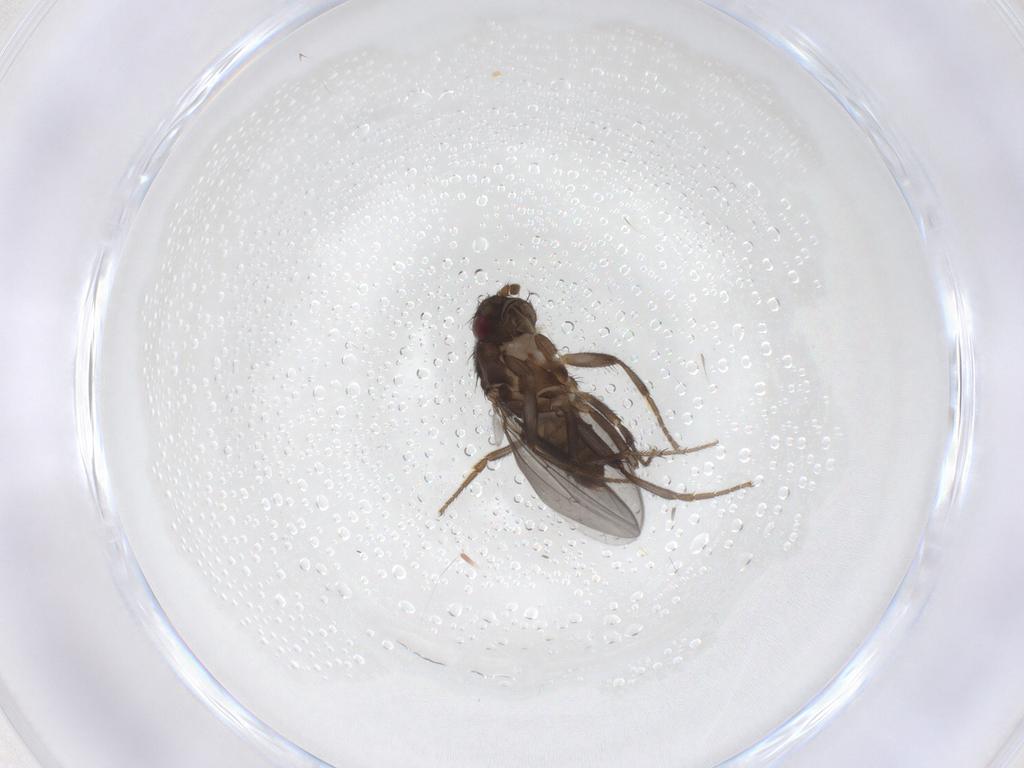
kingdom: Animalia
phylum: Arthropoda
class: Insecta
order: Diptera
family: Sphaeroceridae
